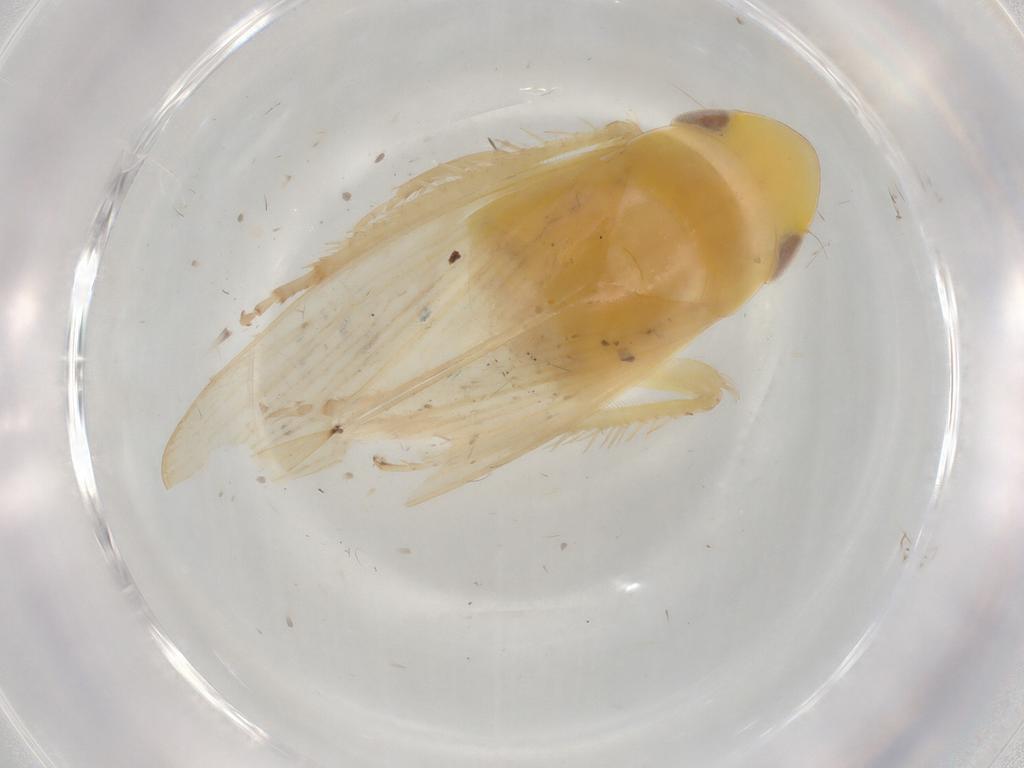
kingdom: Animalia
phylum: Arthropoda
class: Insecta
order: Hemiptera
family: Cicadellidae
